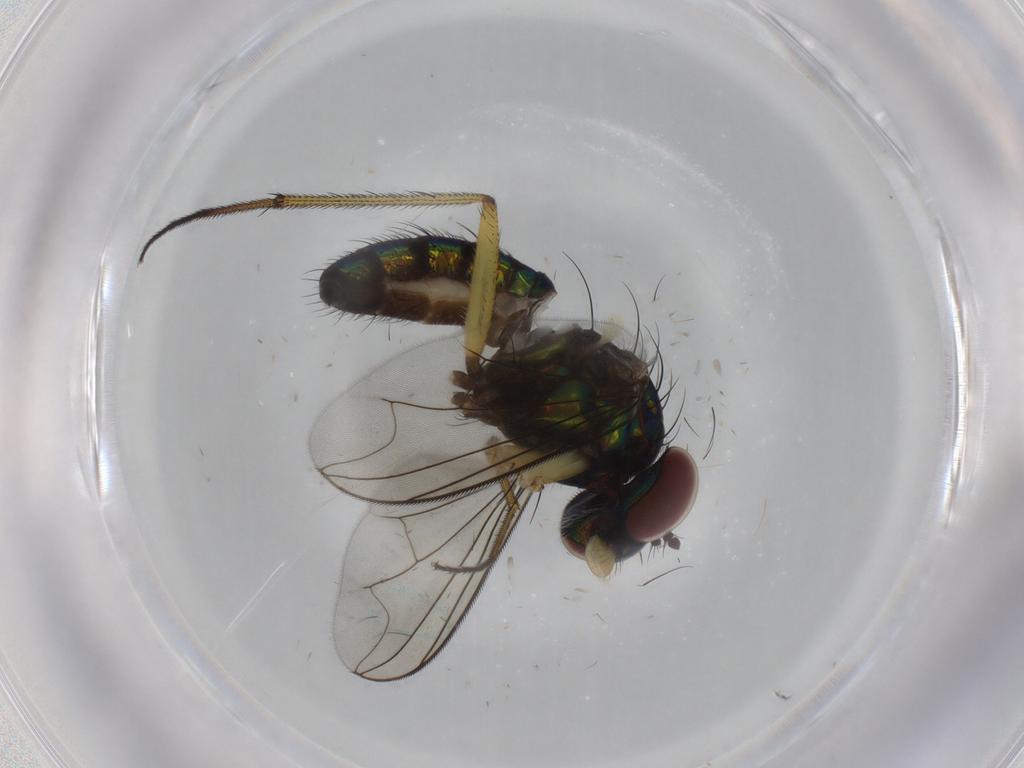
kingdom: Animalia
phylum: Arthropoda
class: Insecta
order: Diptera
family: Dolichopodidae
